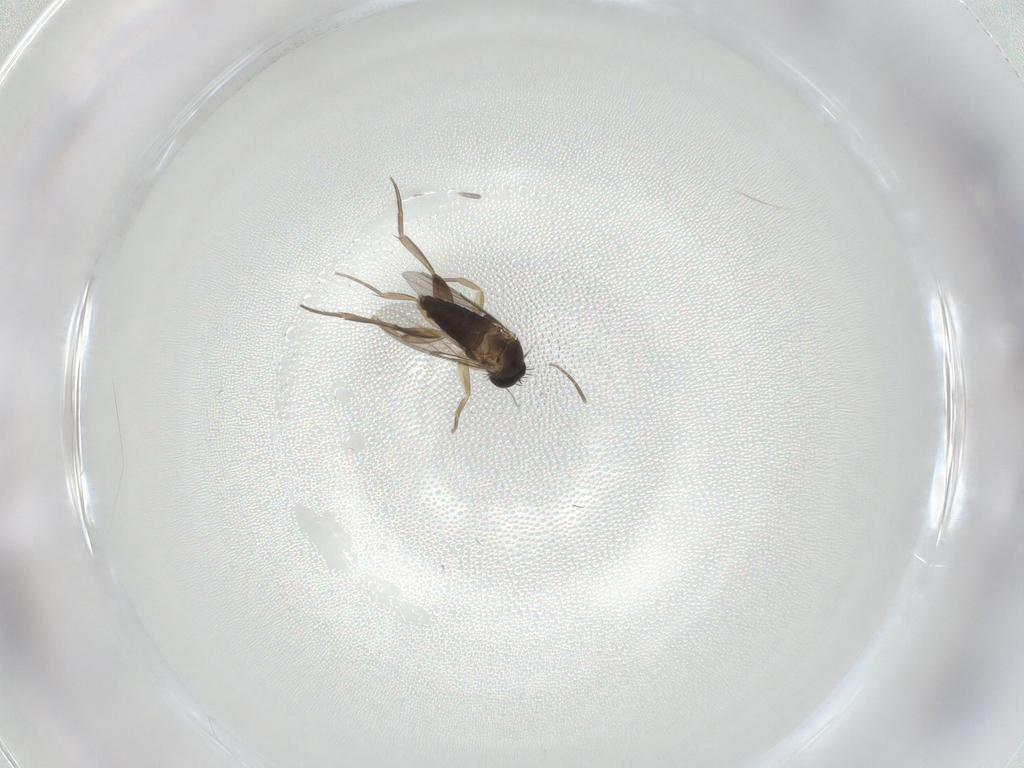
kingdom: Animalia
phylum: Arthropoda
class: Insecta
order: Diptera
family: Phoridae
